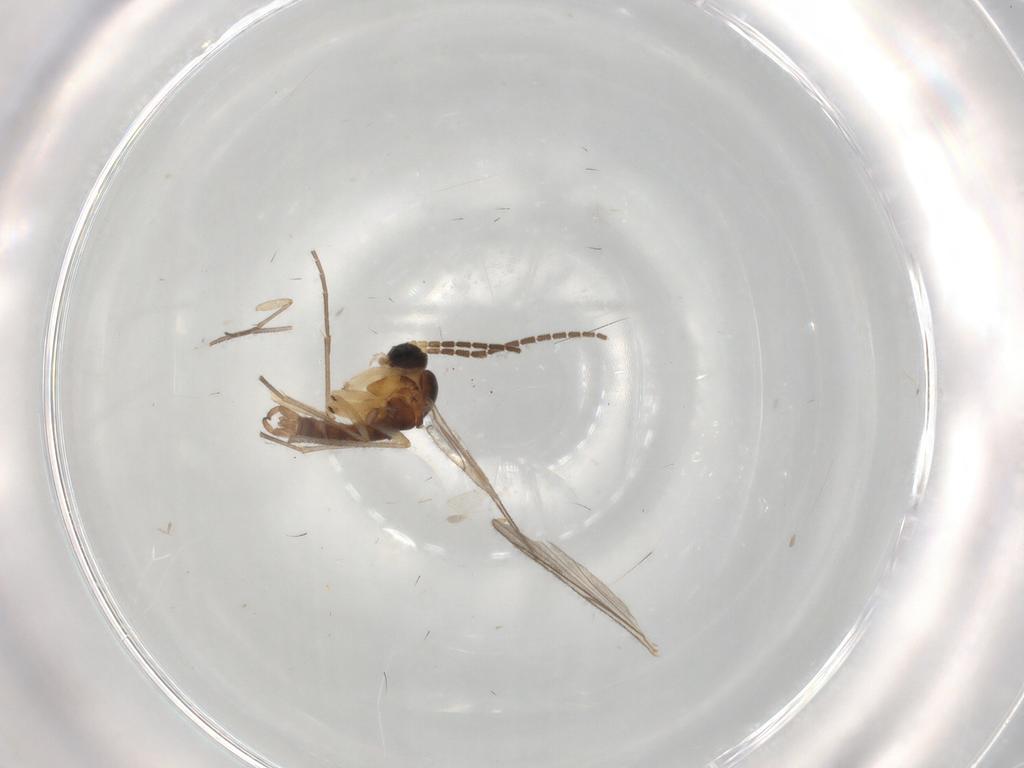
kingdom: Animalia
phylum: Arthropoda
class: Insecta
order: Diptera
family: Sciaridae
